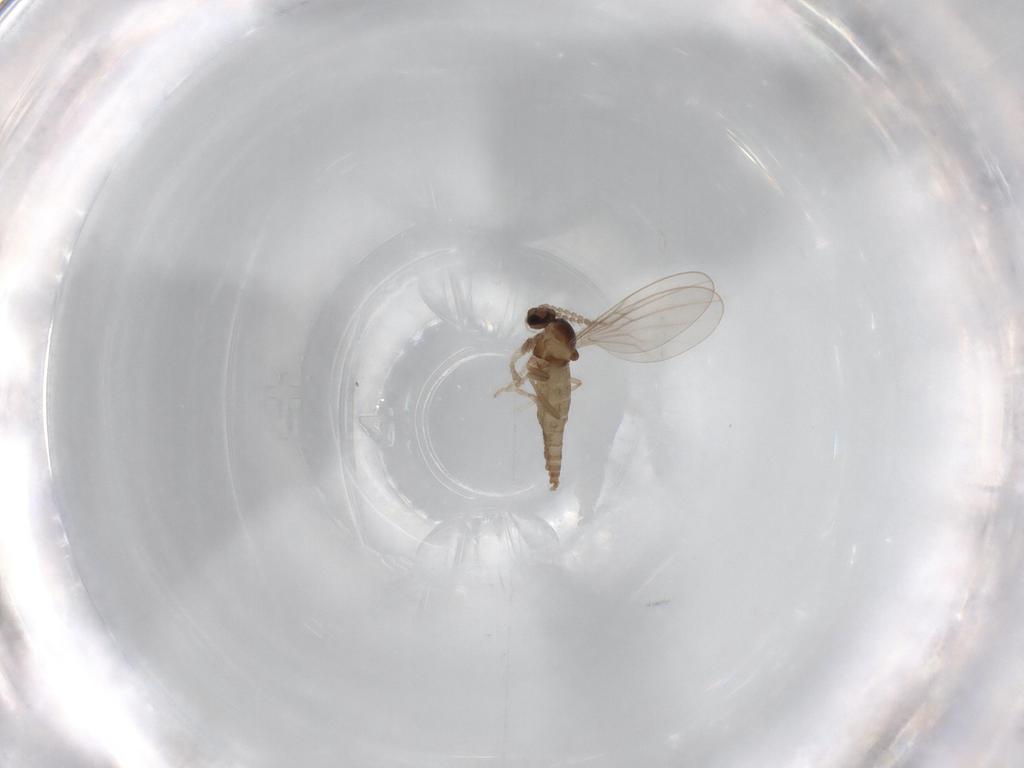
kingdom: Animalia
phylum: Arthropoda
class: Insecta
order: Diptera
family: Cecidomyiidae
